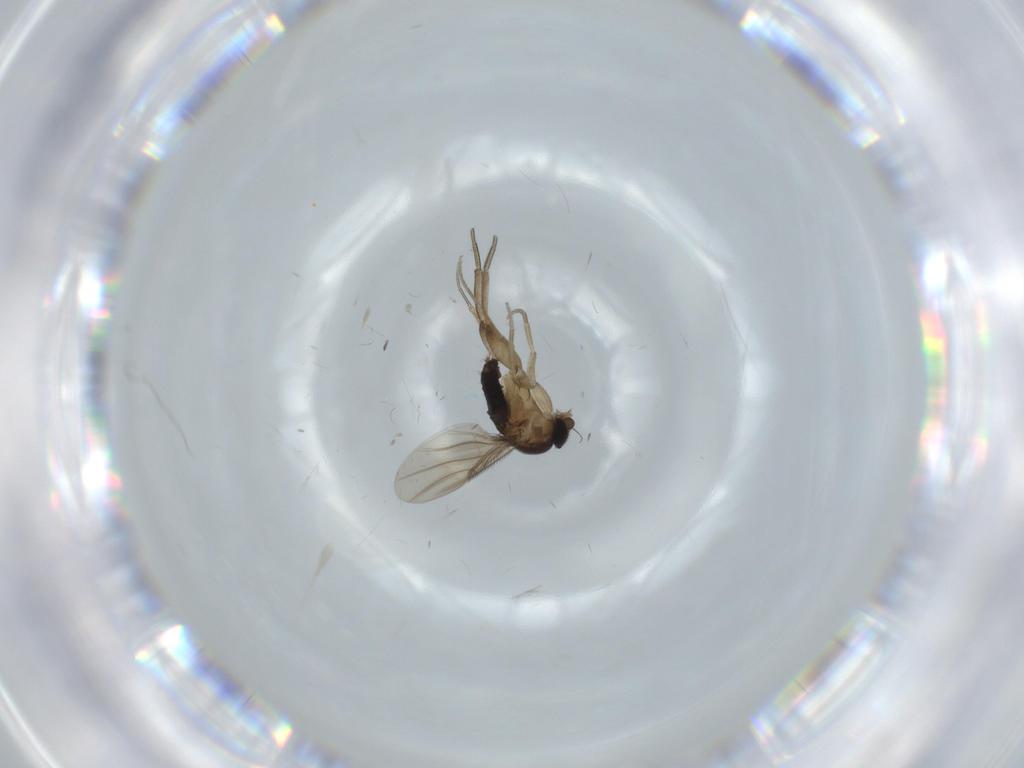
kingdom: Animalia
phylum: Arthropoda
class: Insecta
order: Diptera
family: Phoridae
